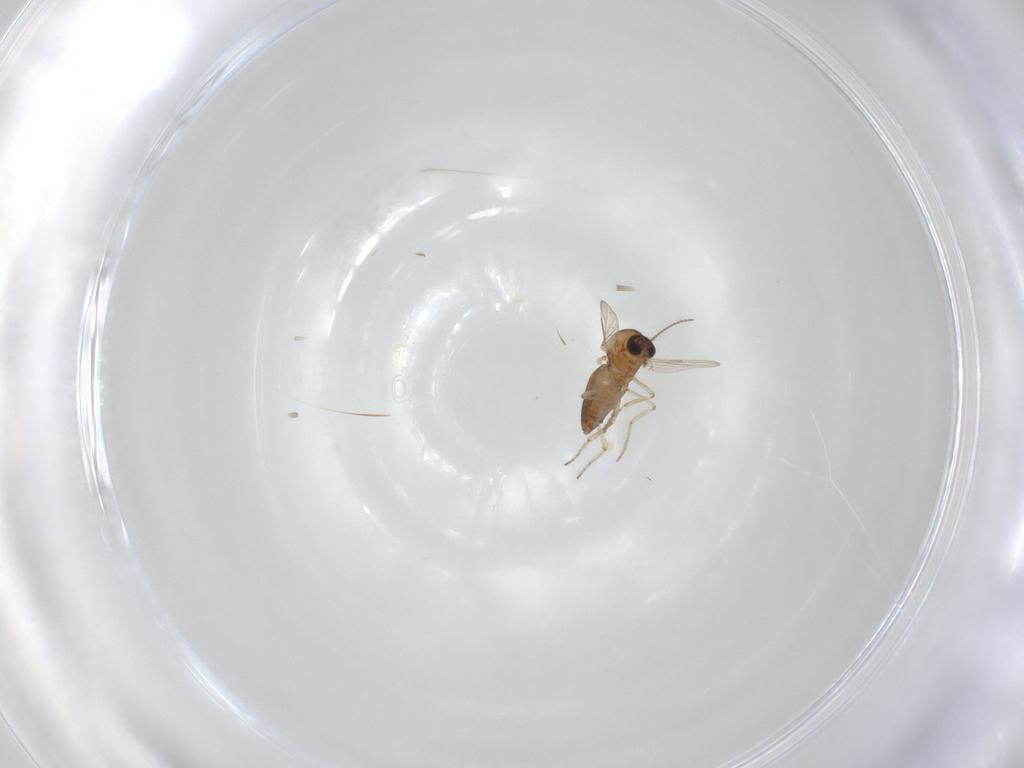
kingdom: Animalia
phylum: Arthropoda
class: Insecta
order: Diptera
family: Ceratopogonidae
